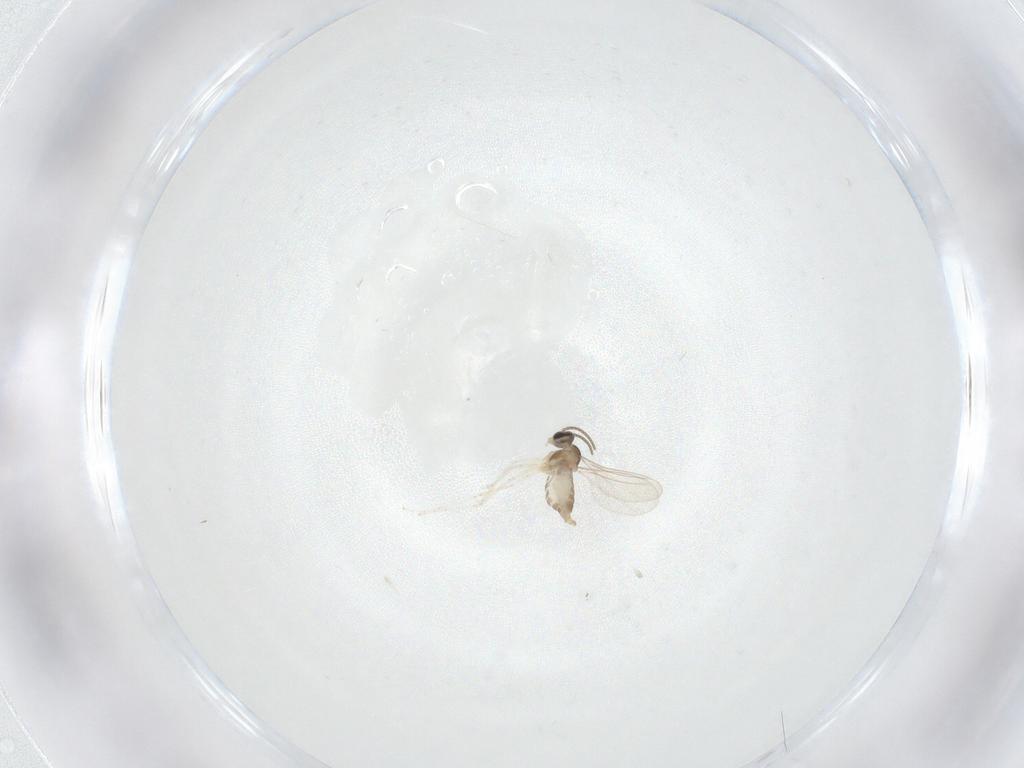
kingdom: Animalia
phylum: Arthropoda
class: Insecta
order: Diptera
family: Cecidomyiidae
